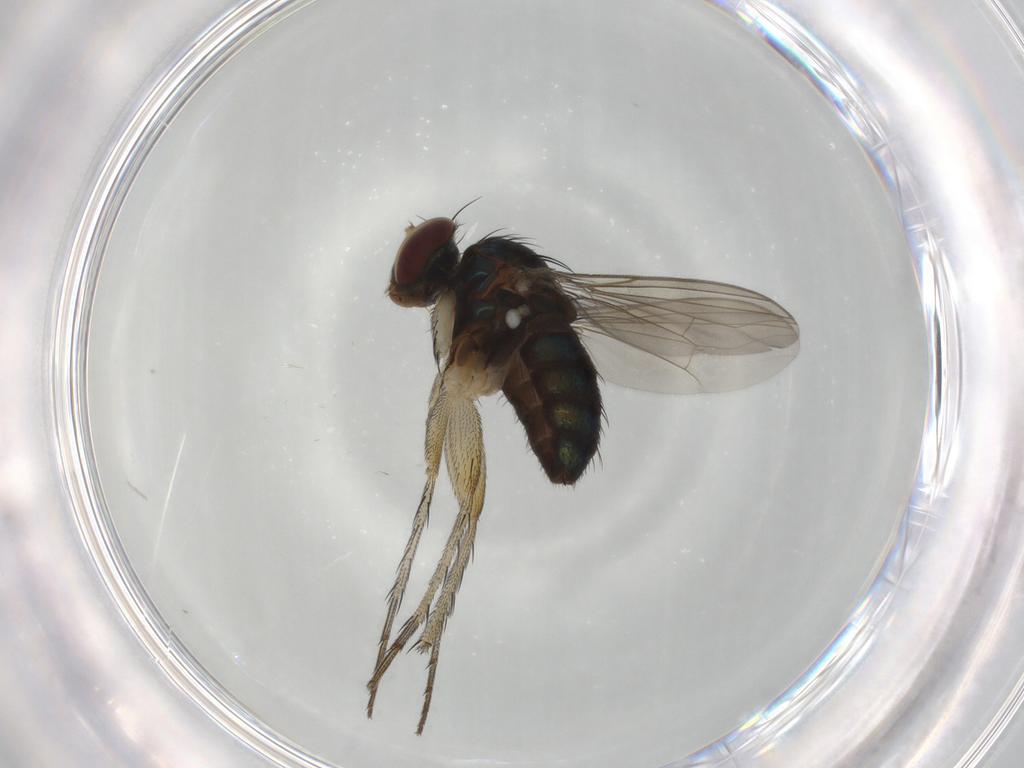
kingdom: Animalia
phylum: Arthropoda
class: Insecta
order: Diptera
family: Dolichopodidae
